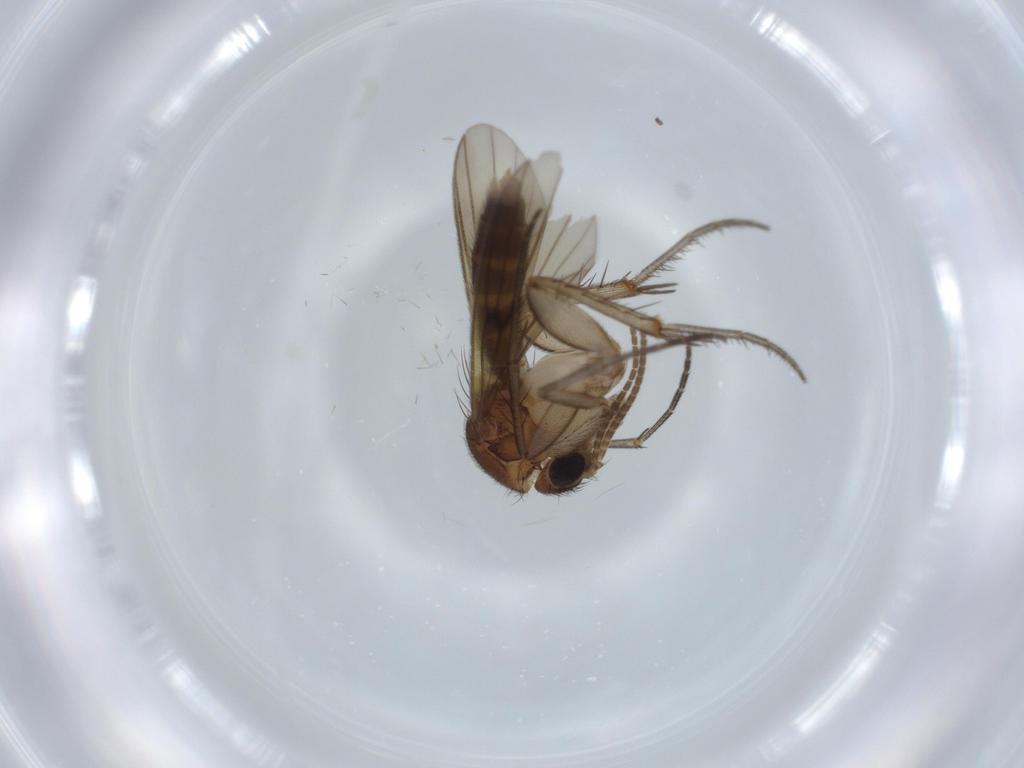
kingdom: Animalia
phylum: Arthropoda
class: Insecta
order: Diptera
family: Mycetophilidae
